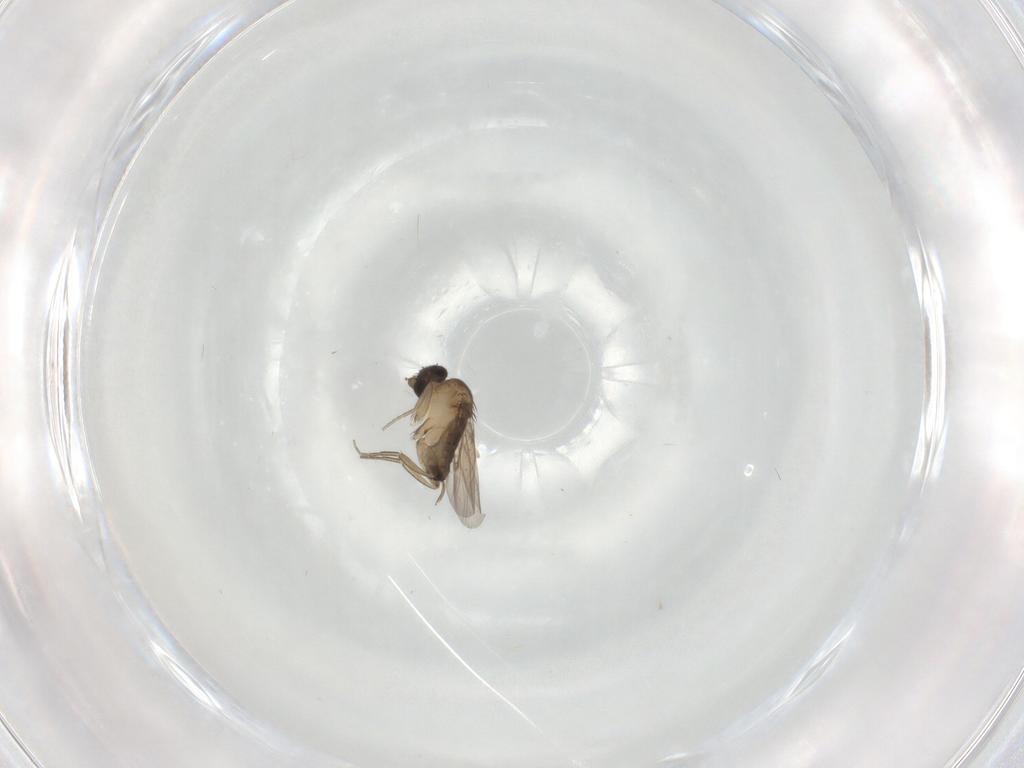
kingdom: Animalia
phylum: Arthropoda
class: Insecta
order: Diptera
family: Phoridae
